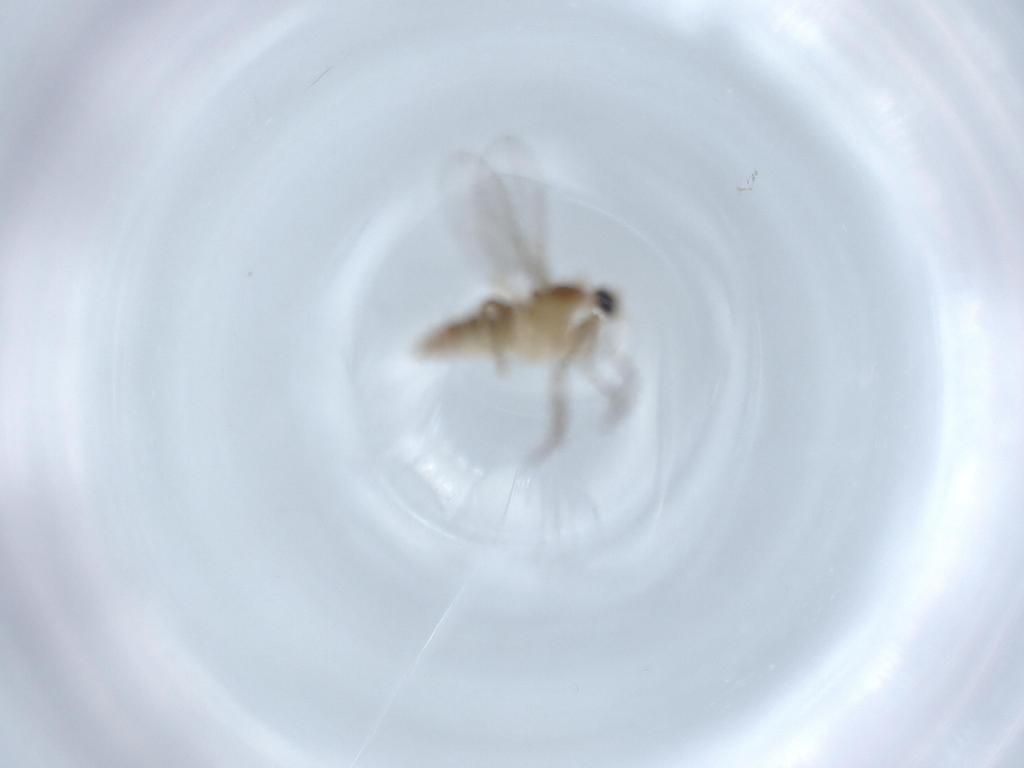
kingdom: Animalia
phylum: Arthropoda
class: Insecta
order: Diptera
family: Cecidomyiidae
